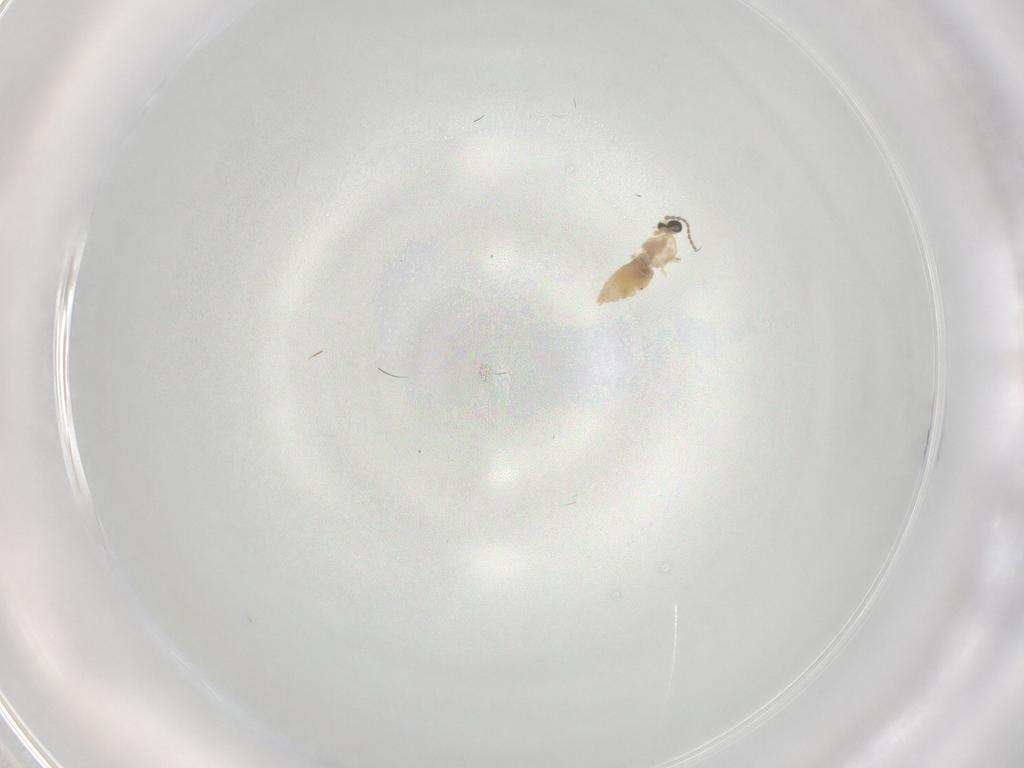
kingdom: Animalia
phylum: Arthropoda
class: Insecta
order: Diptera
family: Cecidomyiidae
